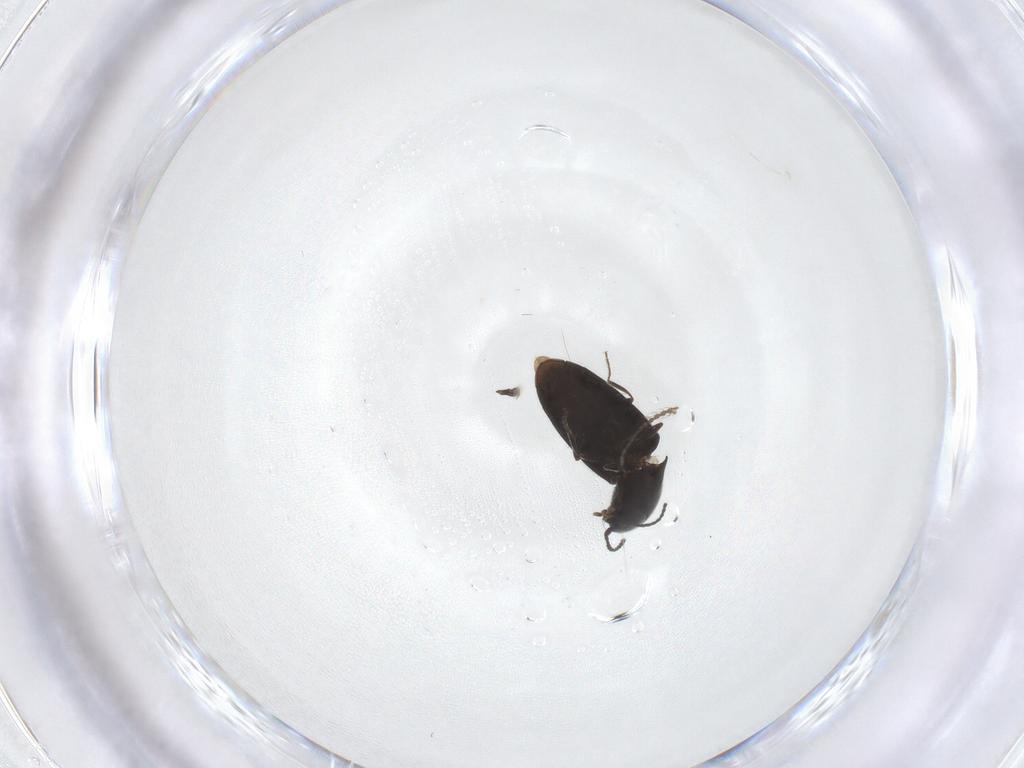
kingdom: Animalia
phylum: Arthropoda
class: Insecta
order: Coleoptera
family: Elateridae
